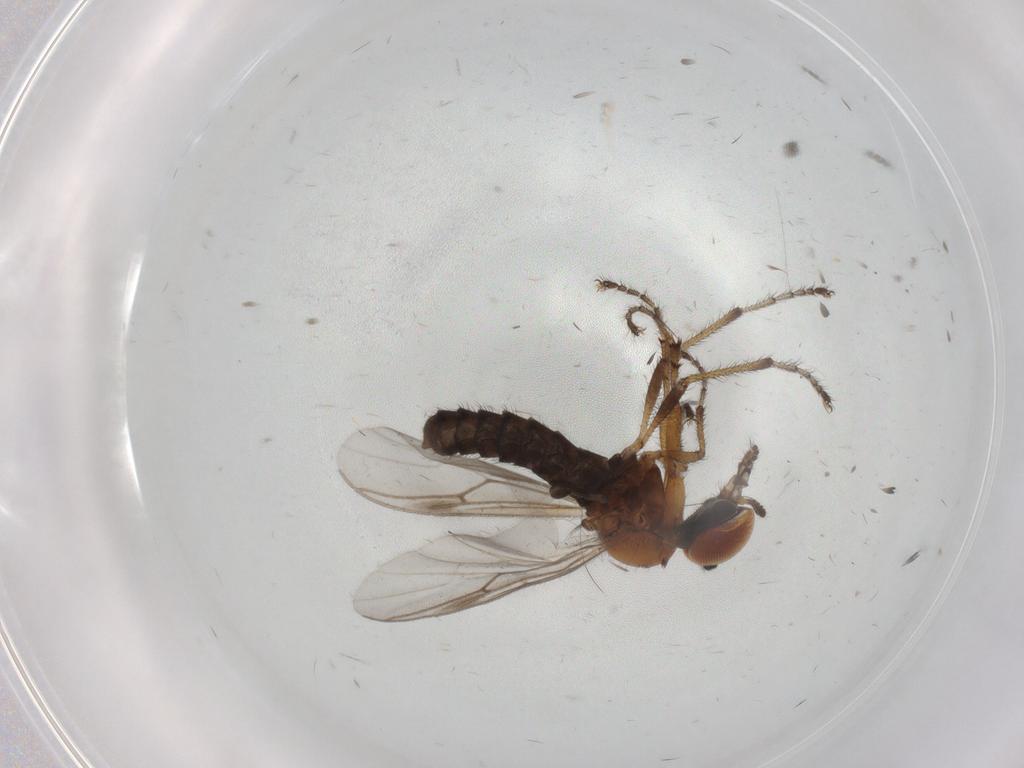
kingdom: Animalia
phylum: Arthropoda
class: Insecta
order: Diptera
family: Bibionidae
